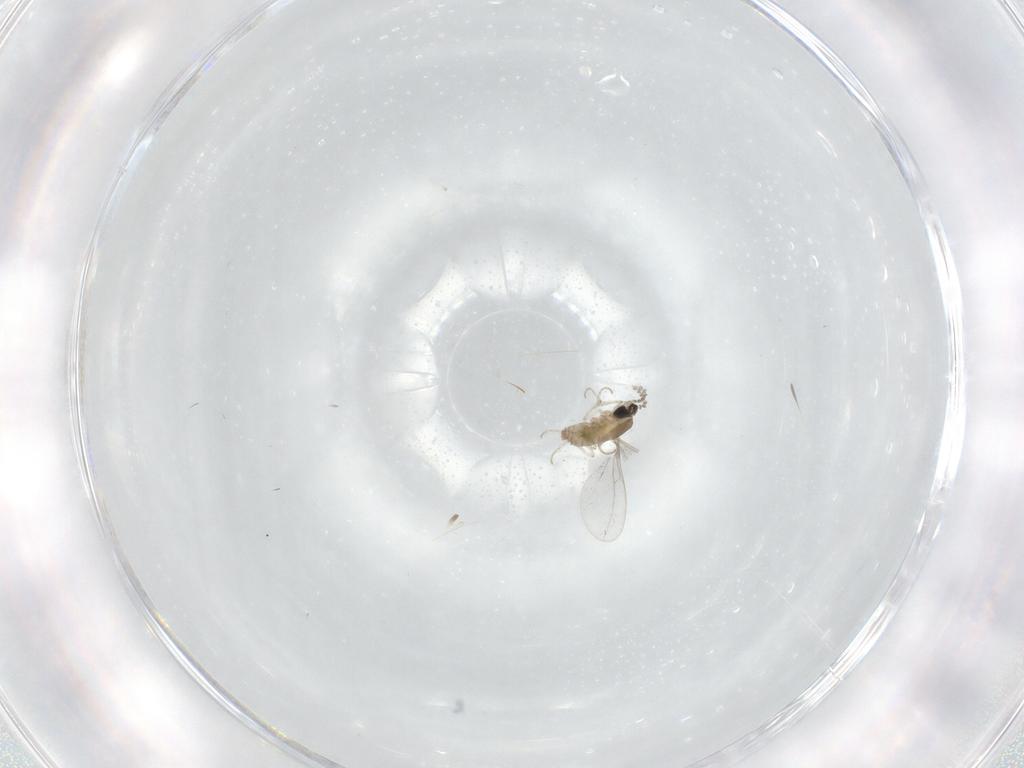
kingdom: Animalia
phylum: Arthropoda
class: Insecta
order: Diptera
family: Cecidomyiidae
